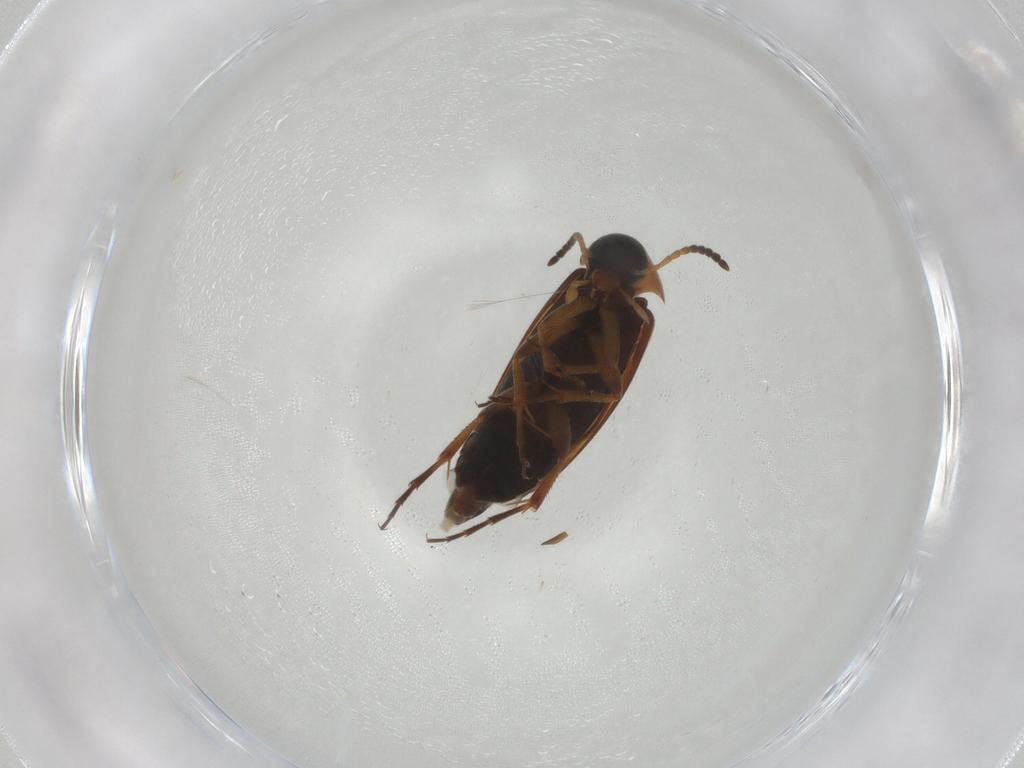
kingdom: Animalia
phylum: Arthropoda
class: Insecta
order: Coleoptera
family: Scraptiidae
